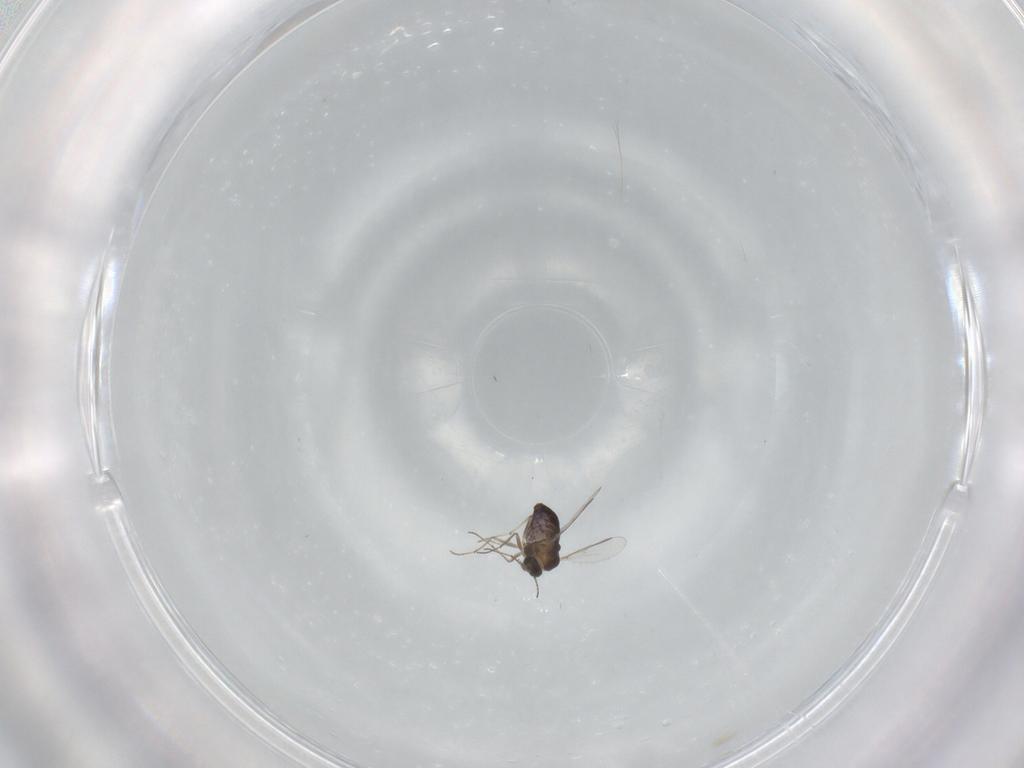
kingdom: Animalia
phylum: Arthropoda
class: Insecta
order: Diptera
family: Chironomidae
